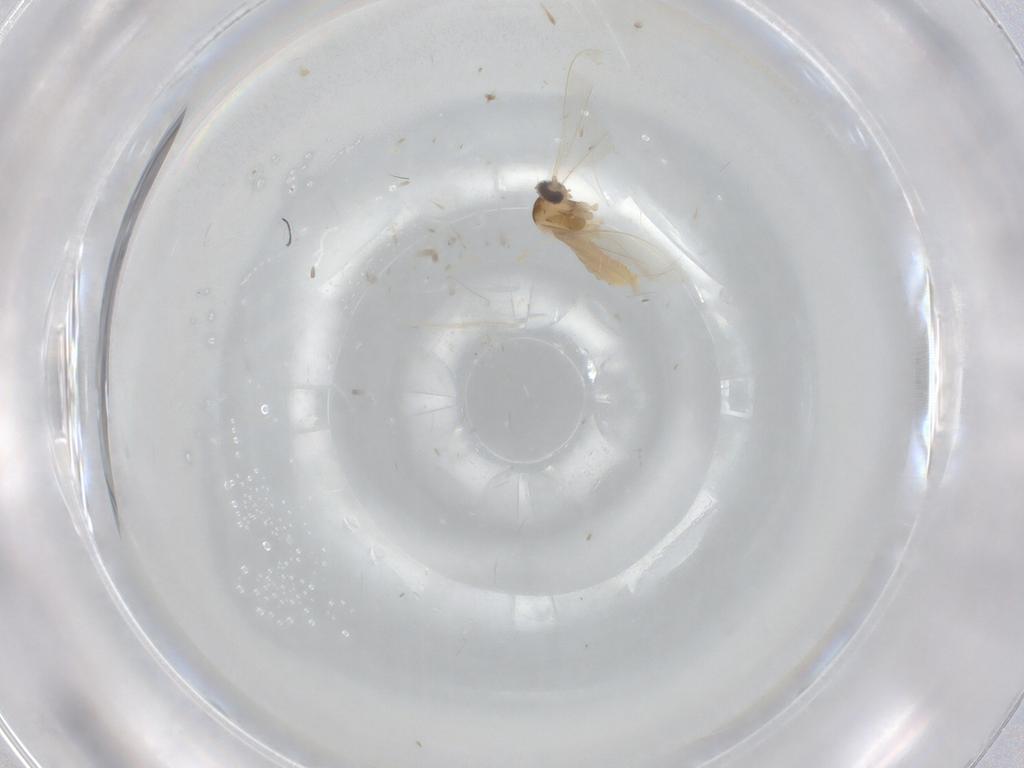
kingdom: Animalia
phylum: Arthropoda
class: Insecta
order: Diptera
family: Cecidomyiidae
